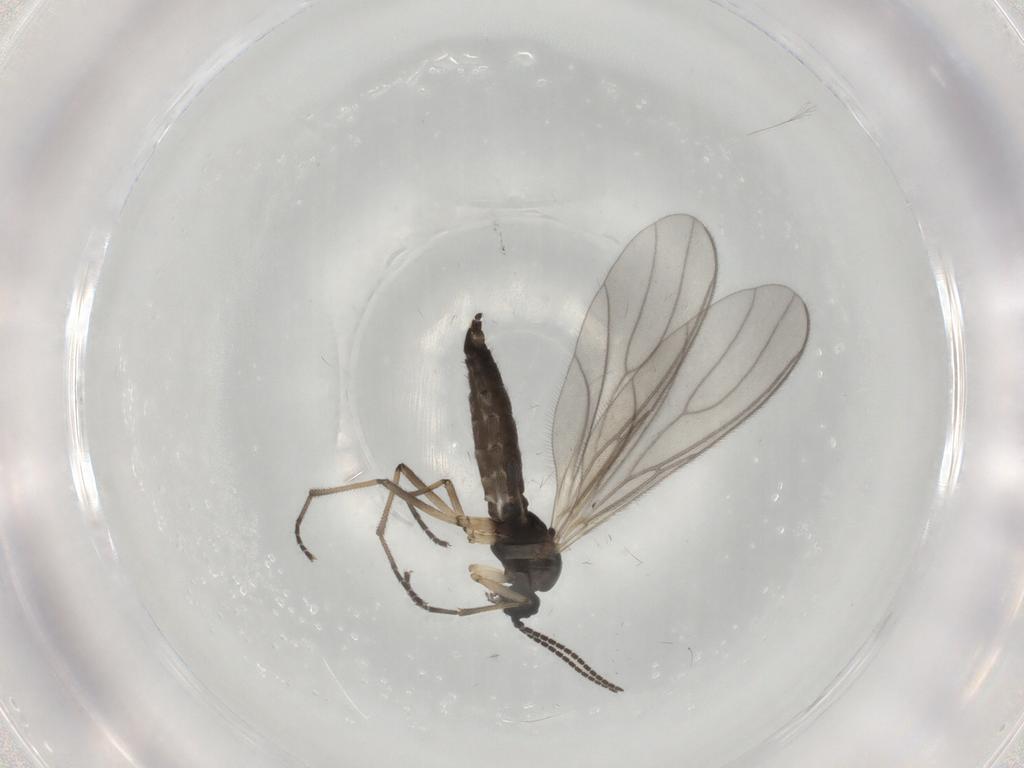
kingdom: Animalia
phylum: Arthropoda
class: Insecta
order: Diptera
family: Sciaridae
